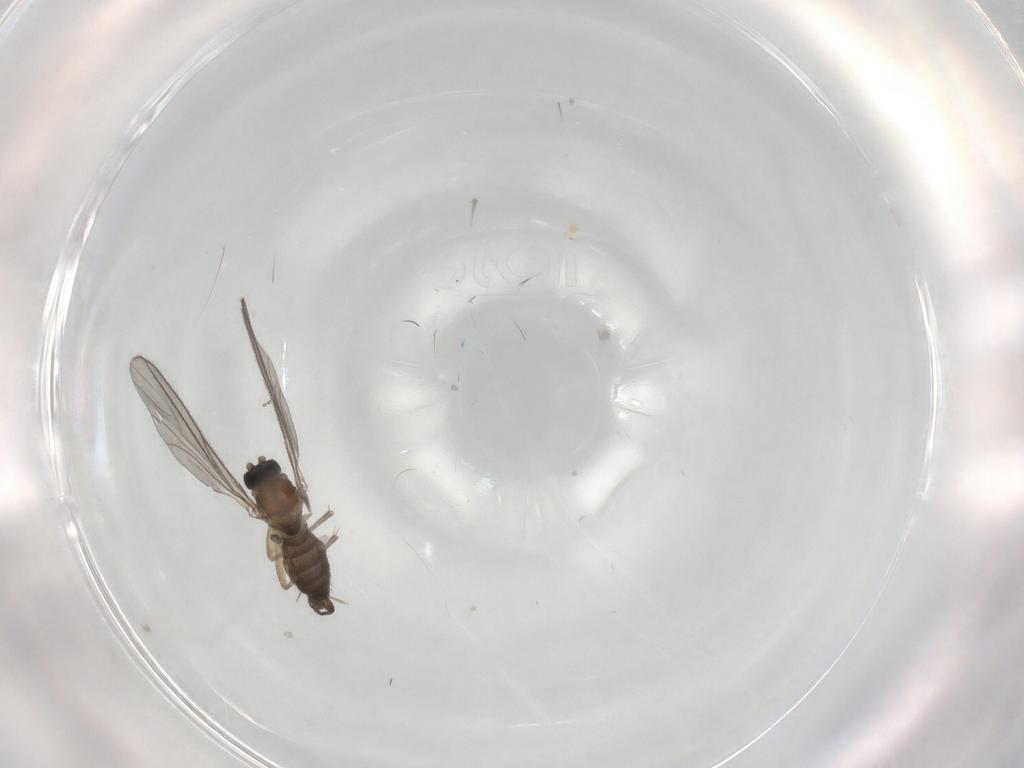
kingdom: Animalia
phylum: Arthropoda
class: Insecta
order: Diptera
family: Sciaridae
